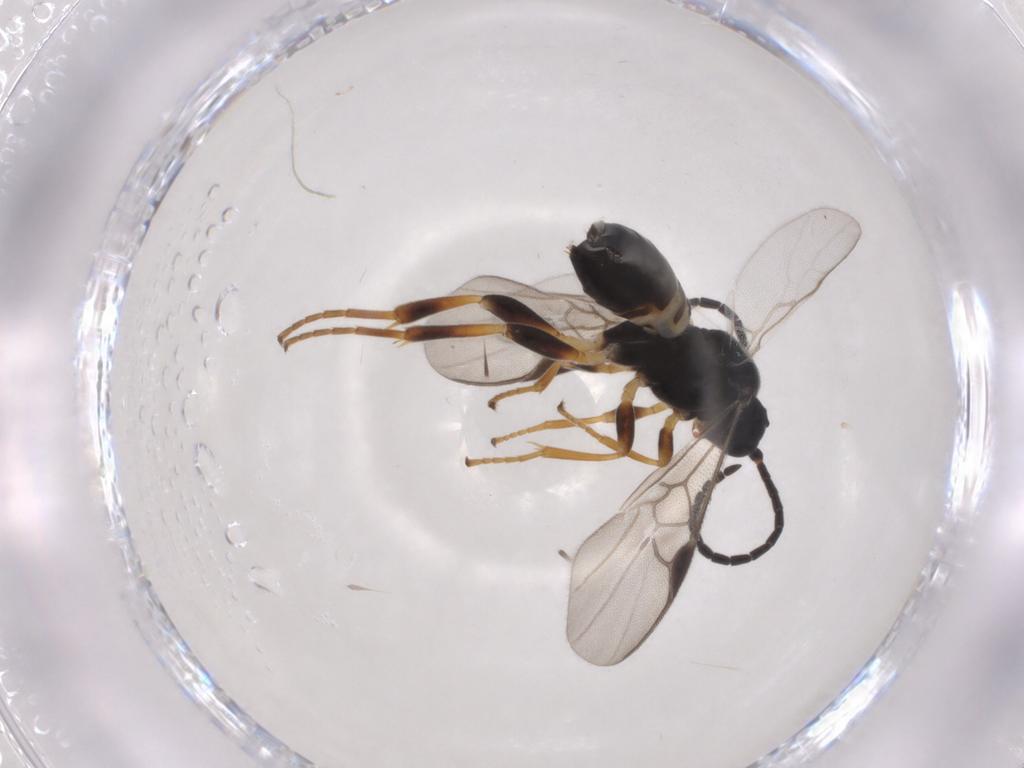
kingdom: Animalia
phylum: Arthropoda
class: Insecta
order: Hymenoptera
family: Braconidae
